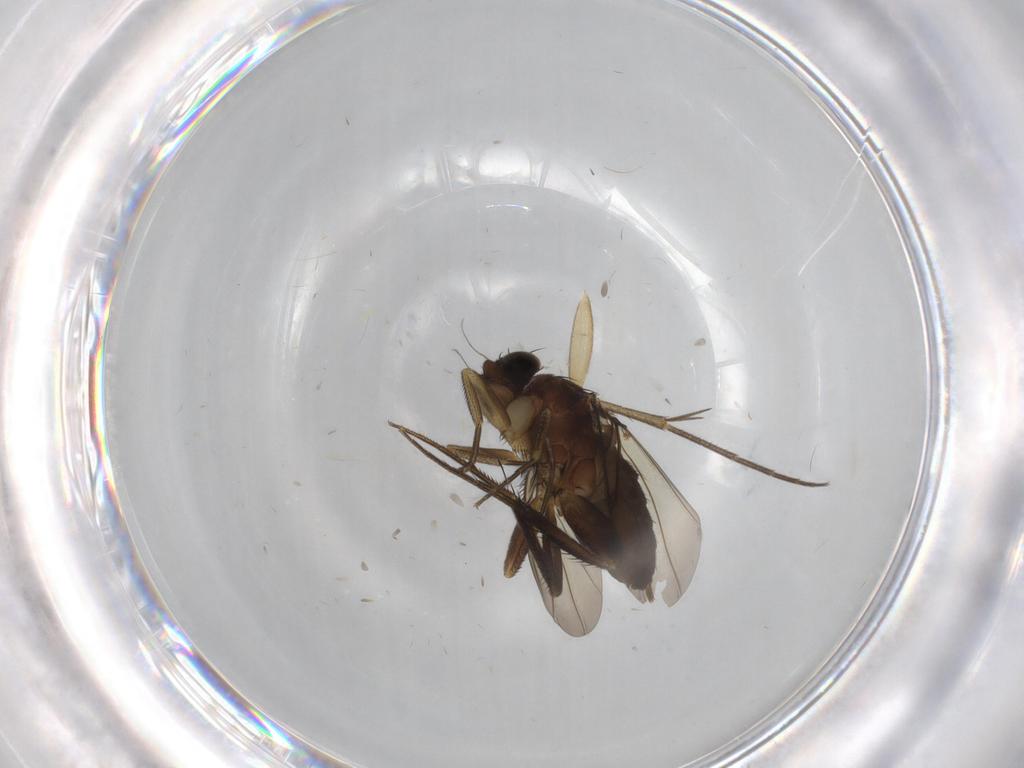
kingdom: Animalia
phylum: Arthropoda
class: Insecta
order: Diptera
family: Phoridae
